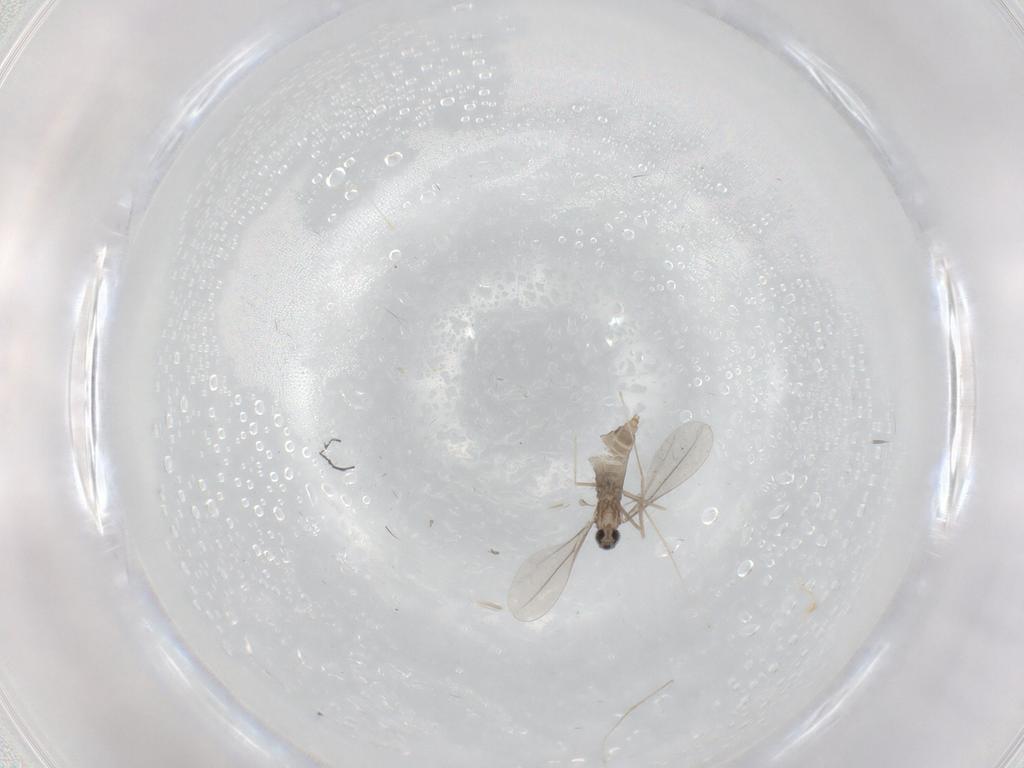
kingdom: Animalia
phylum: Arthropoda
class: Insecta
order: Diptera
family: Cecidomyiidae
